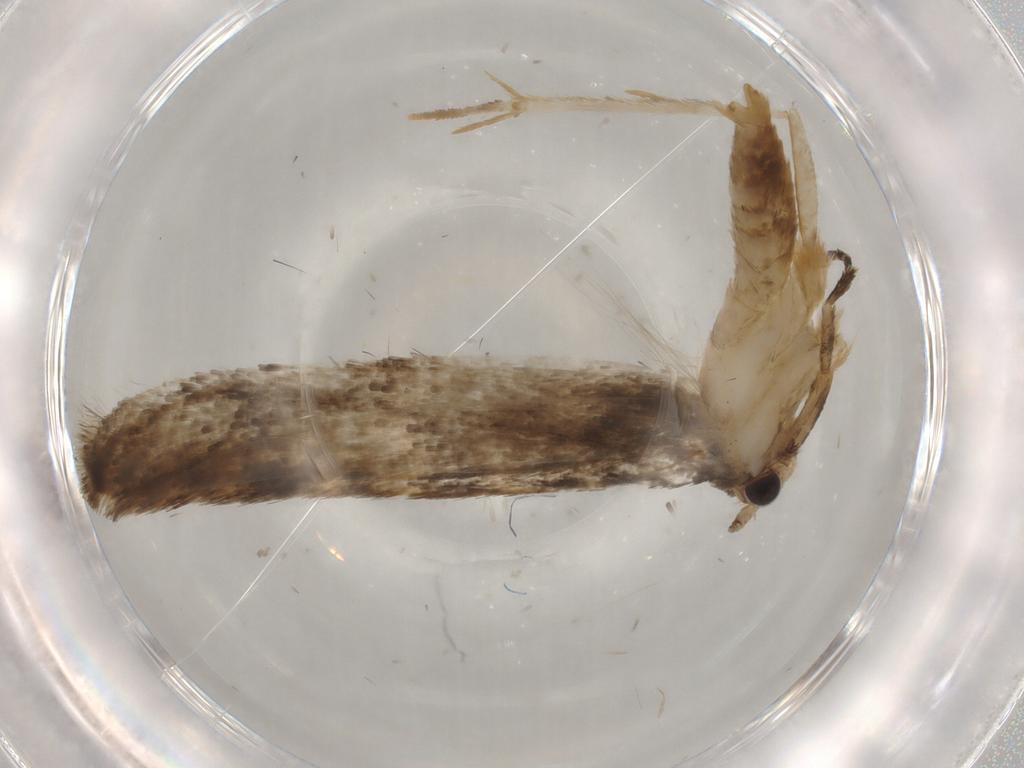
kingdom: Animalia
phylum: Arthropoda
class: Insecta
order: Lepidoptera
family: Meessiidae
